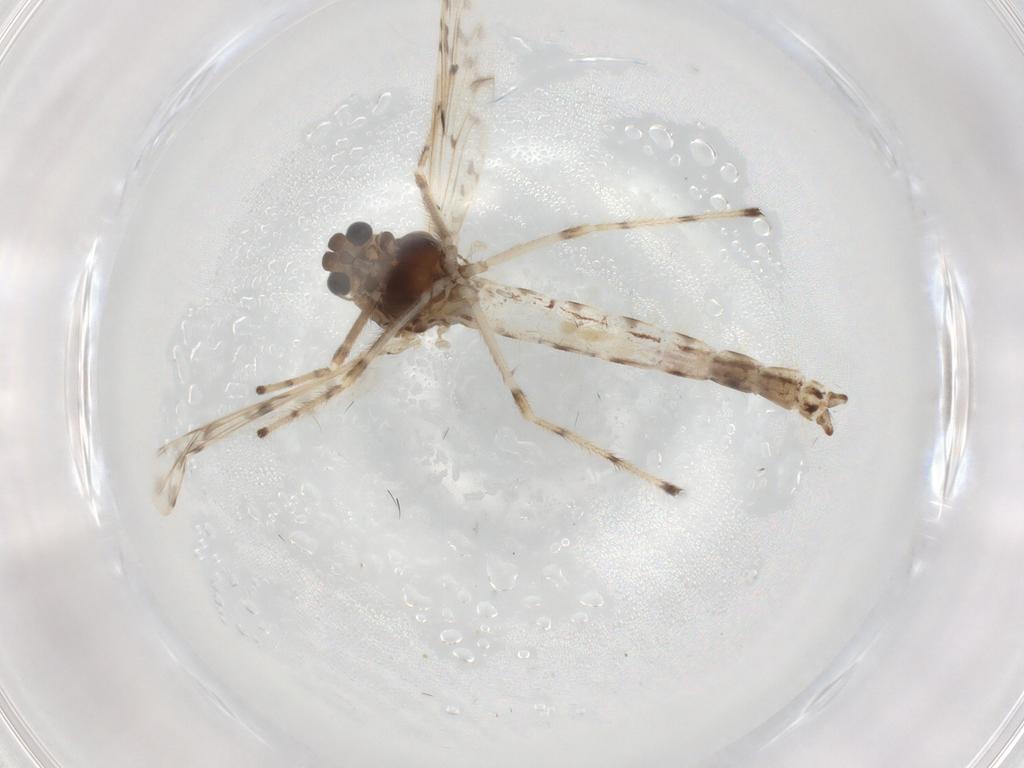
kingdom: Animalia
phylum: Arthropoda
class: Insecta
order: Diptera
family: Chironomidae
